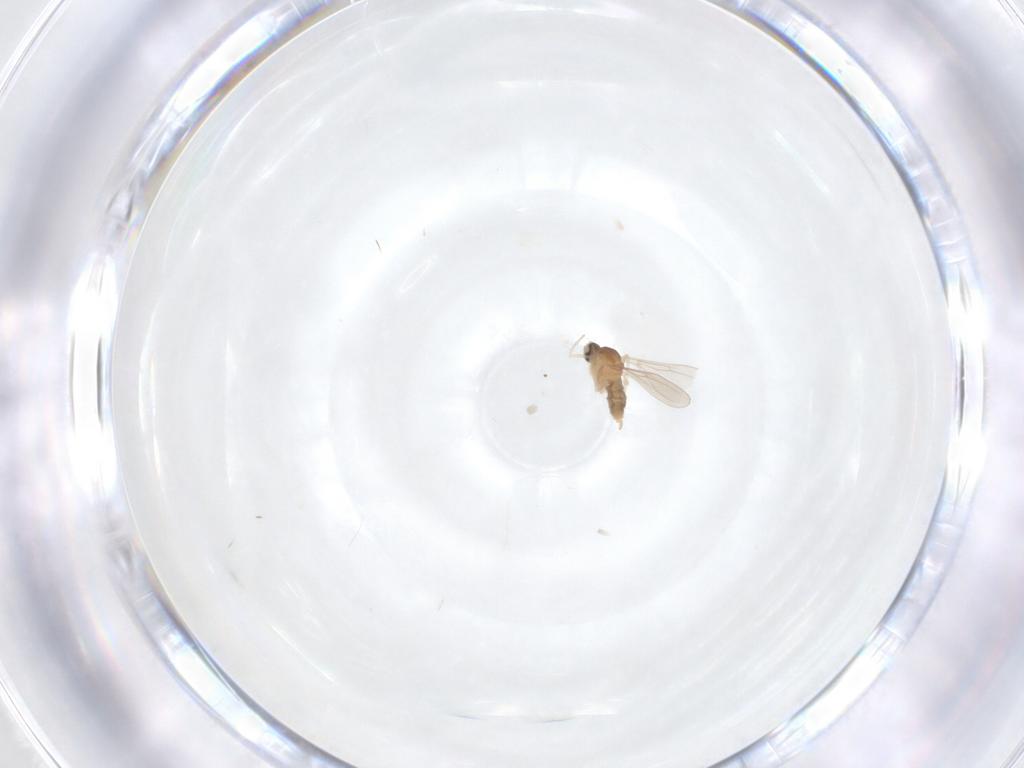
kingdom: Animalia
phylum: Arthropoda
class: Insecta
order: Diptera
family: Cecidomyiidae
